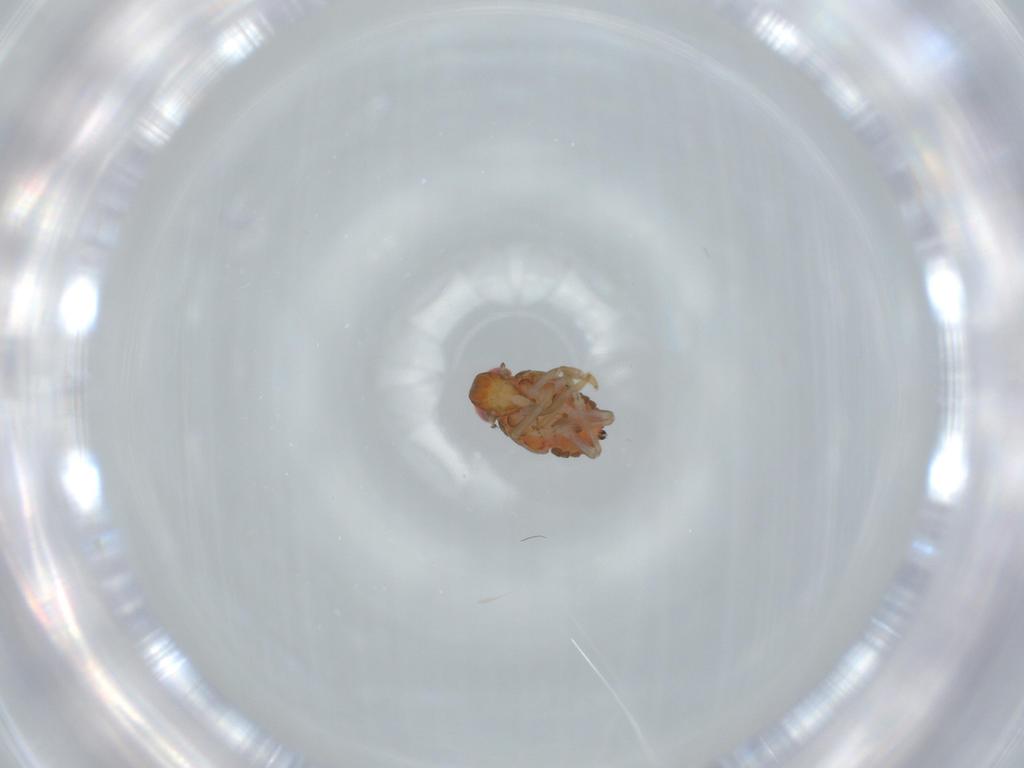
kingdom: Animalia
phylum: Arthropoda
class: Insecta
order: Hemiptera
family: Issidae
